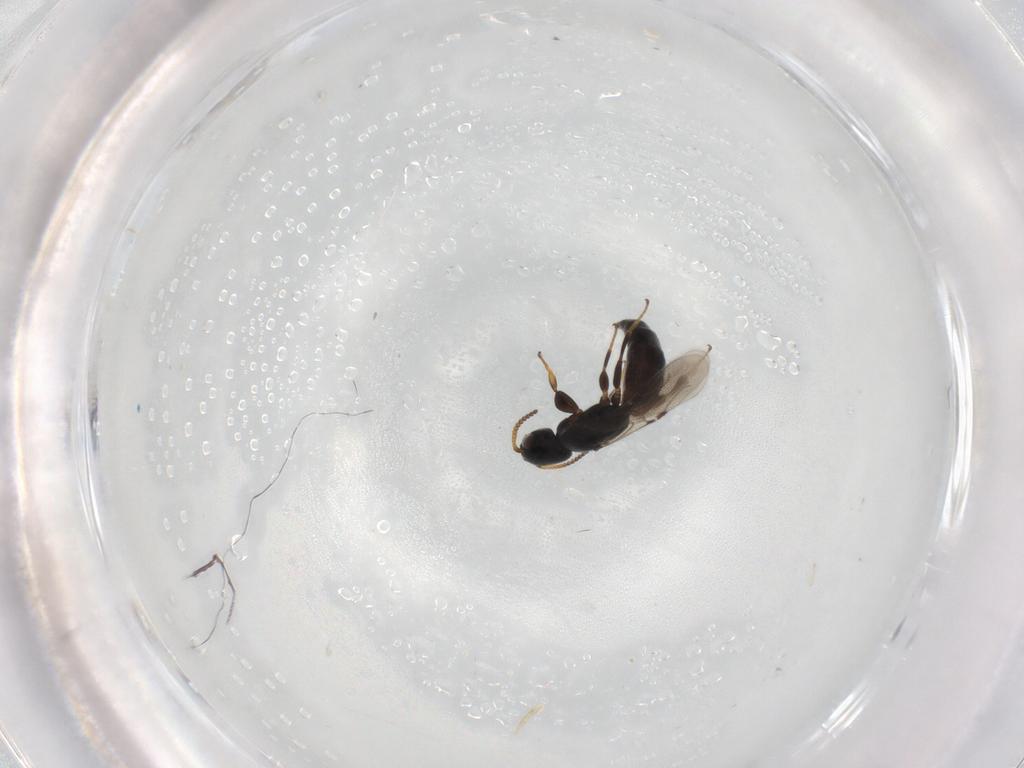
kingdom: Animalia
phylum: Arthropoda
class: Insecta
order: Hymenoptera
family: Bethylidae
